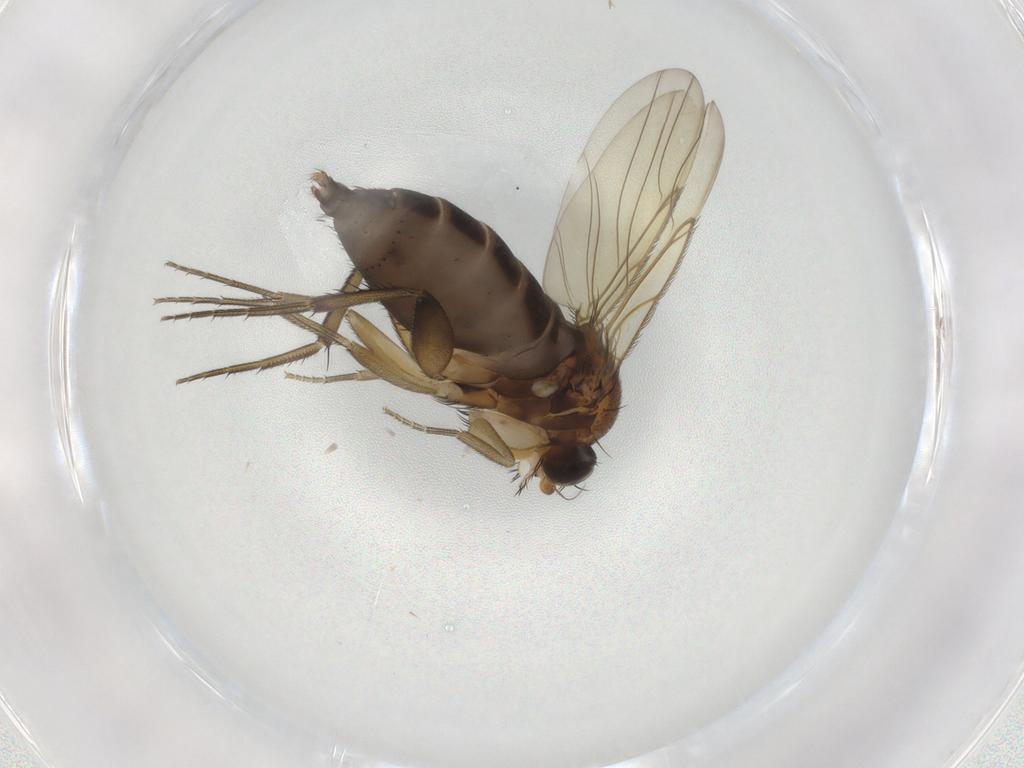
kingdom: Animalia
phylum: Arthropoda
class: Insecta
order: Diptera
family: Phoridae
